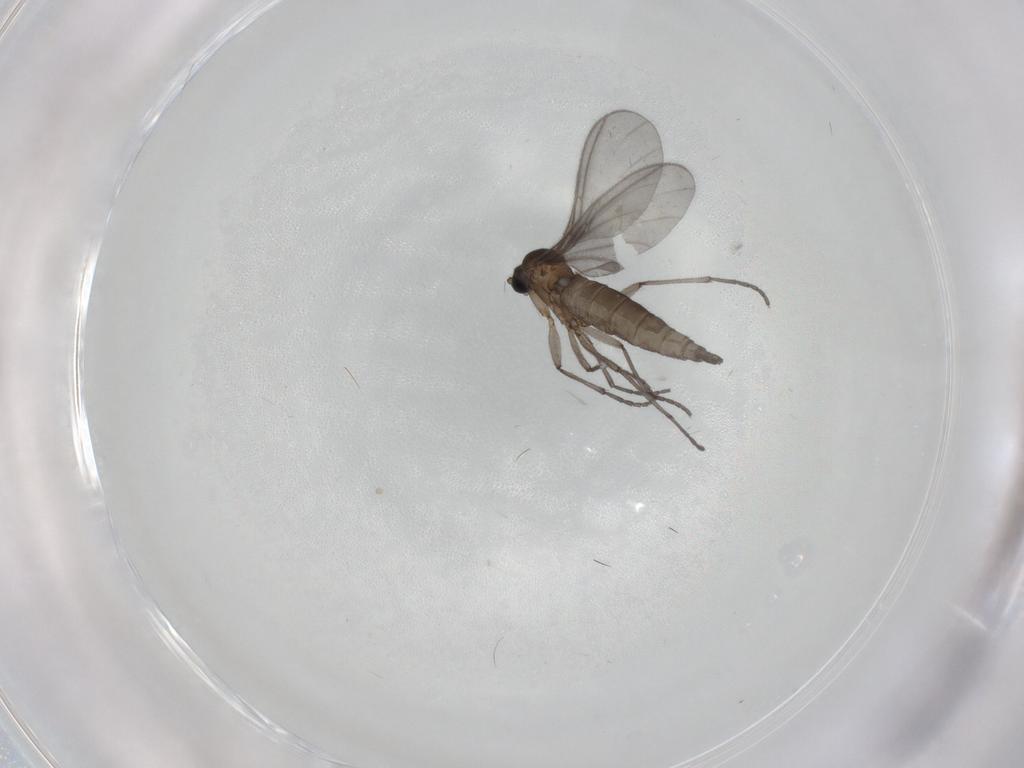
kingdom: Animalia
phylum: Arthropoda
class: Insecta
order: Diptera
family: Sciaridae
